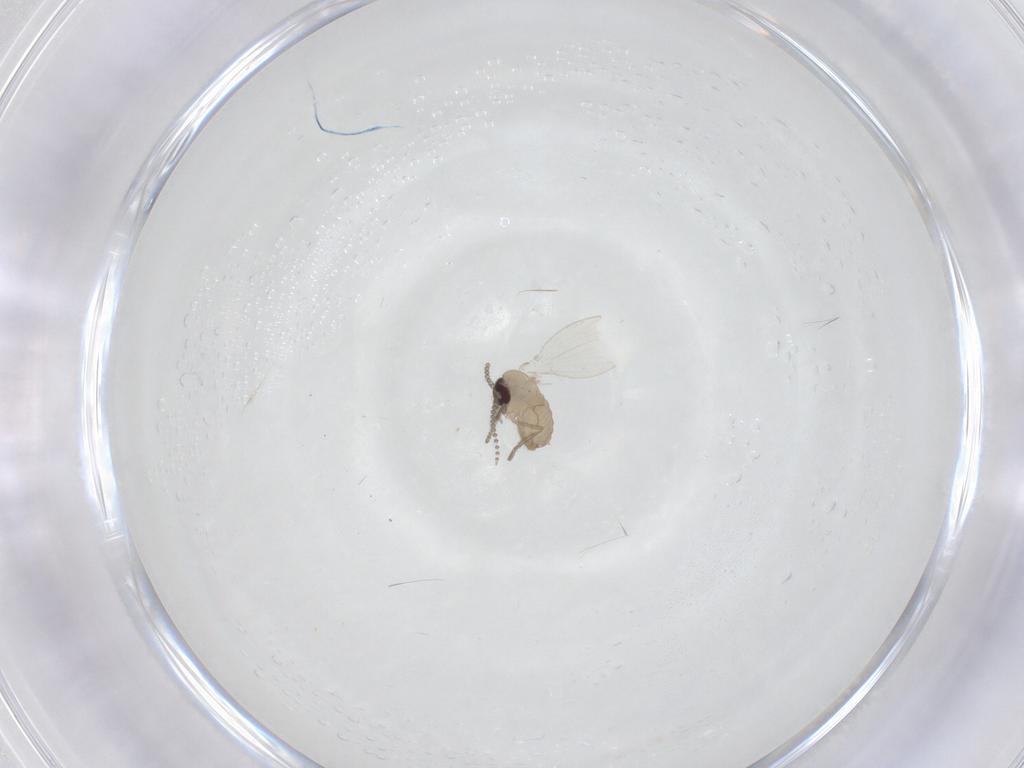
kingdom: Animalia
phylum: Arthropoda
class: Insecta
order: Diptera
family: Psychodidae
